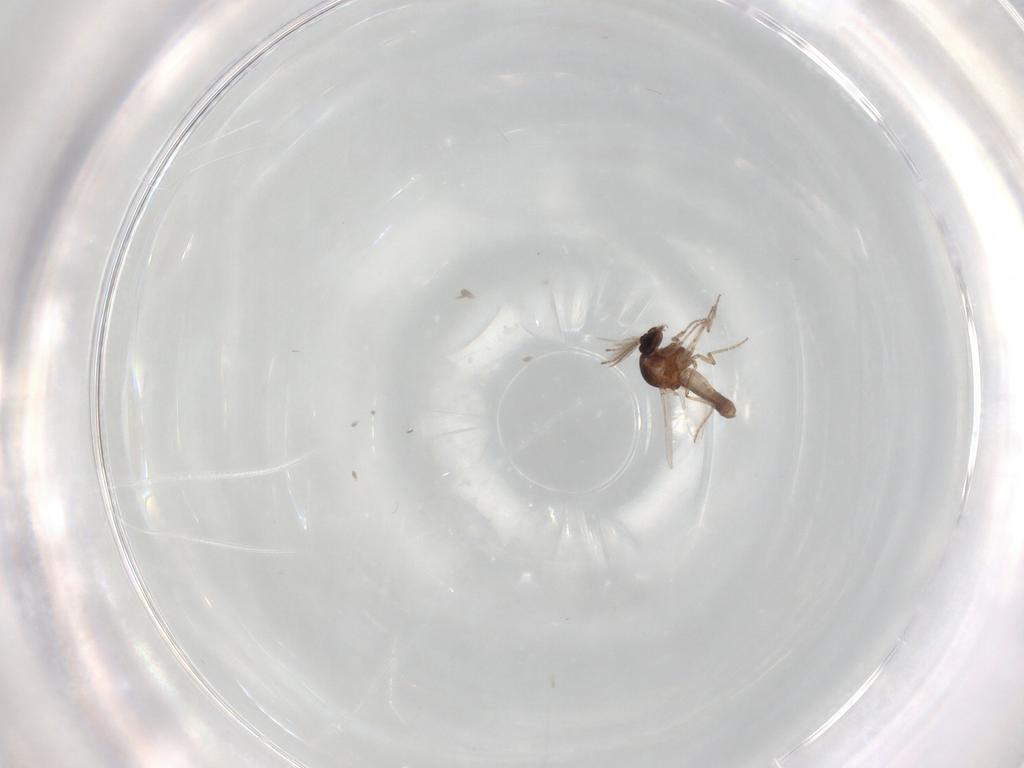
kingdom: Animalia
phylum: Arthropoda
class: Insecta
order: Diptera
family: Ceratopogonidae
